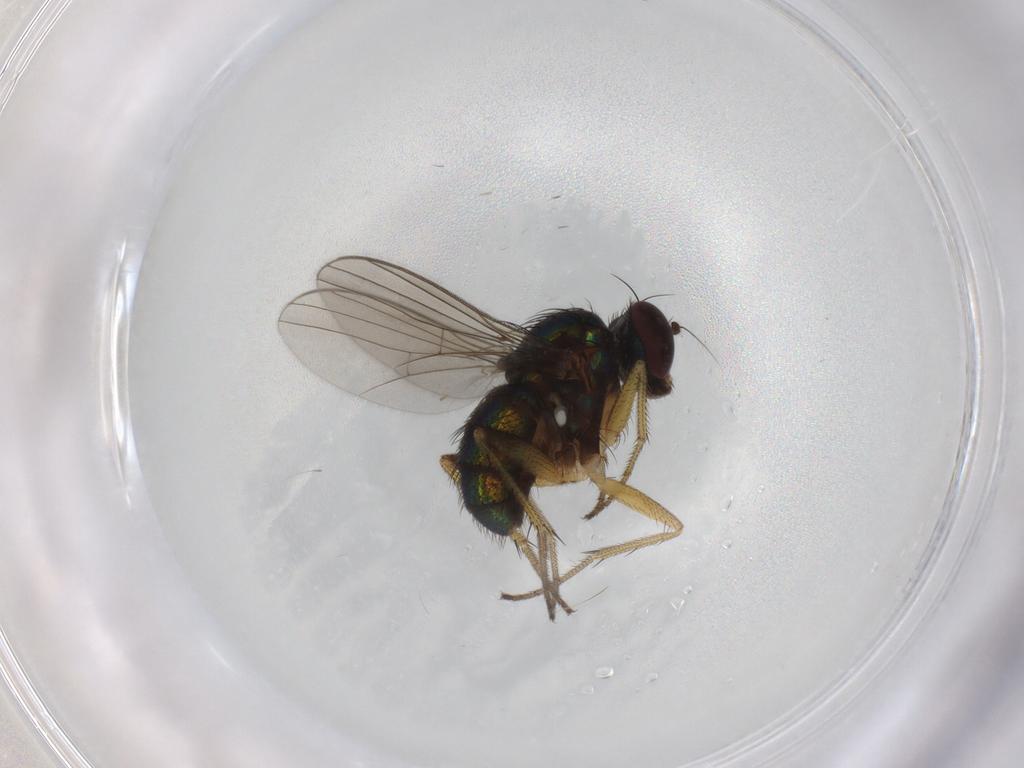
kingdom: Animalia
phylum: Arthropoda
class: Insecta
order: Diptera
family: Dolichopodidae
